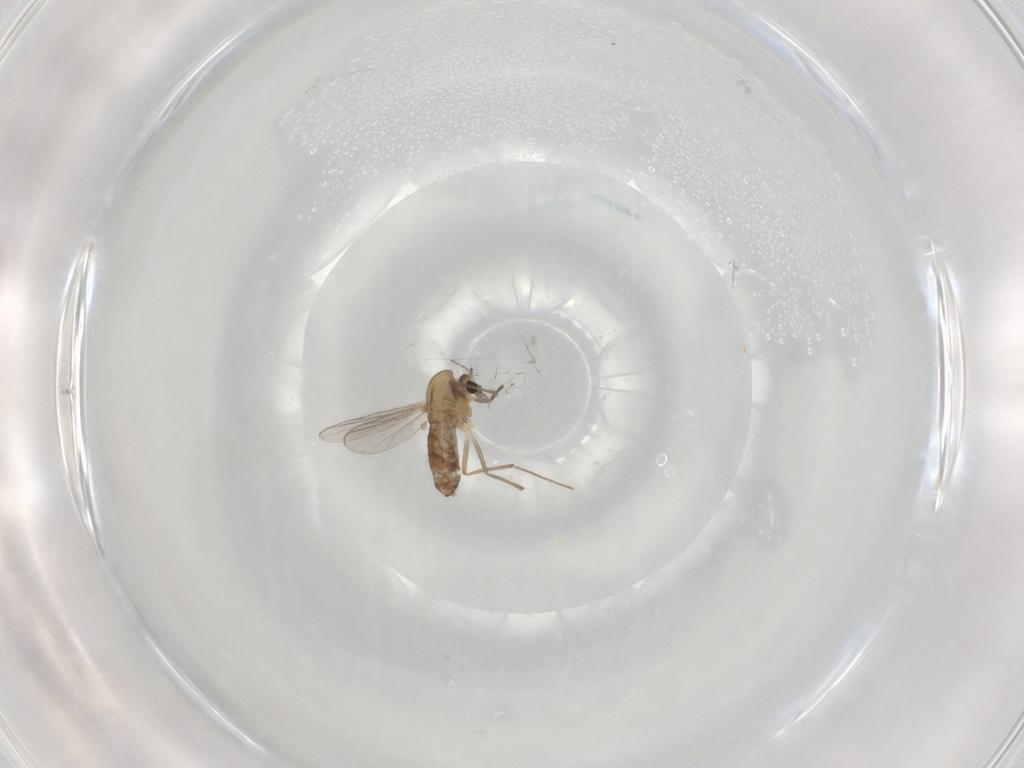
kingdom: Animalia
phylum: Arthropoda
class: Insecta
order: Diptera
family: Chironomidae
